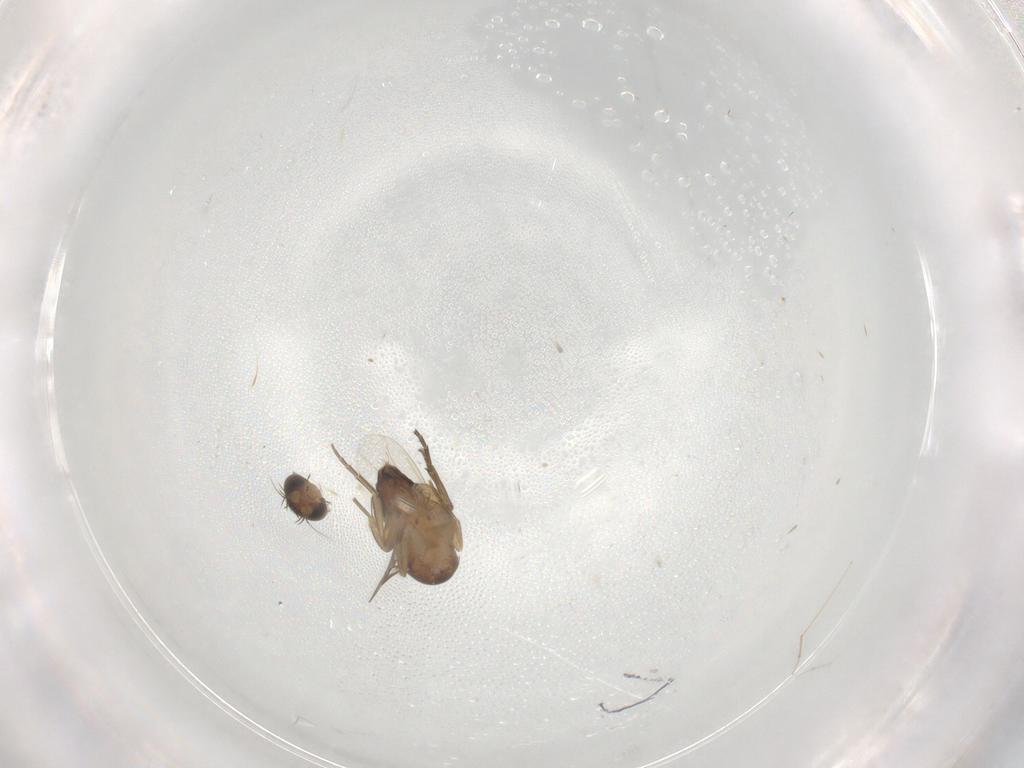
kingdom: Animalia
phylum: Arthropoda
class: Insecta
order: Diptera
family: Phoridae
